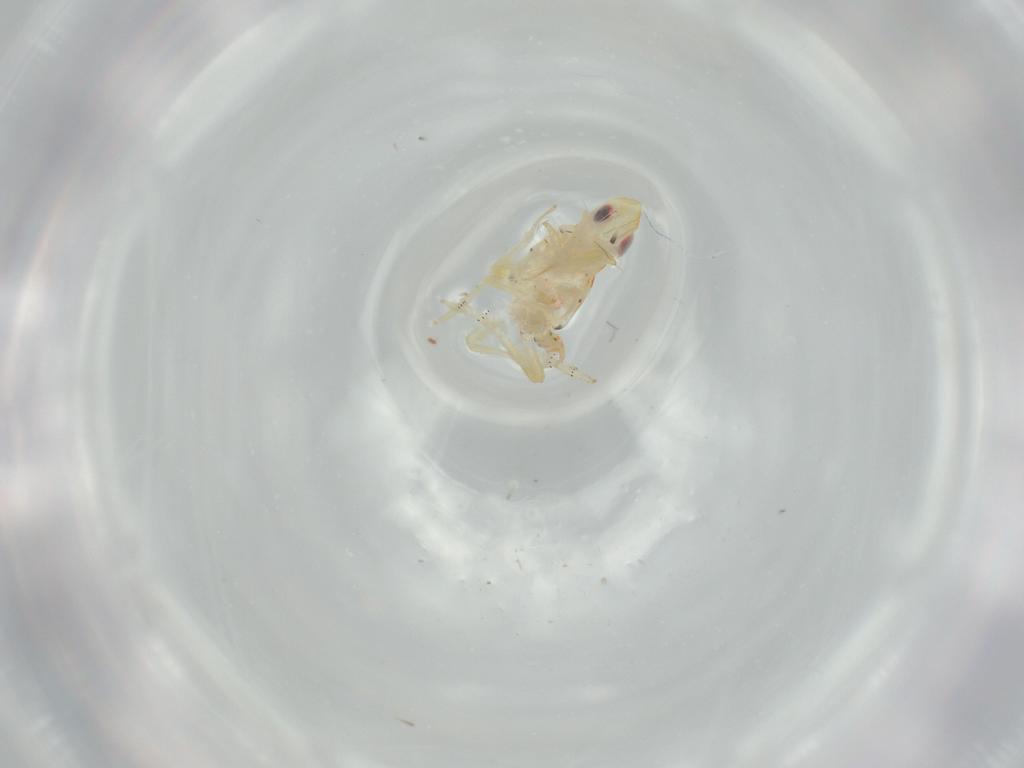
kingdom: Animalia
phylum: Arthropoda
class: Insecta
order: Hemiptera
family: Tropiduchidae
